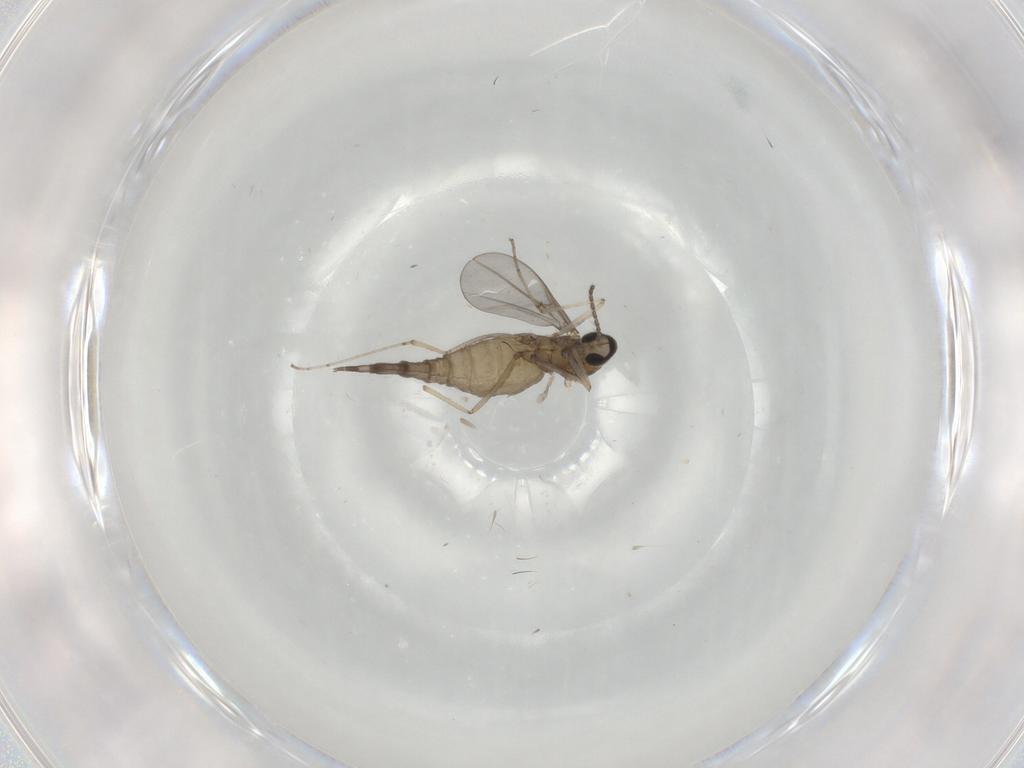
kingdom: Animalia
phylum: Arthropoda
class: Insecta
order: Diptera
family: Cecidomyiidae
